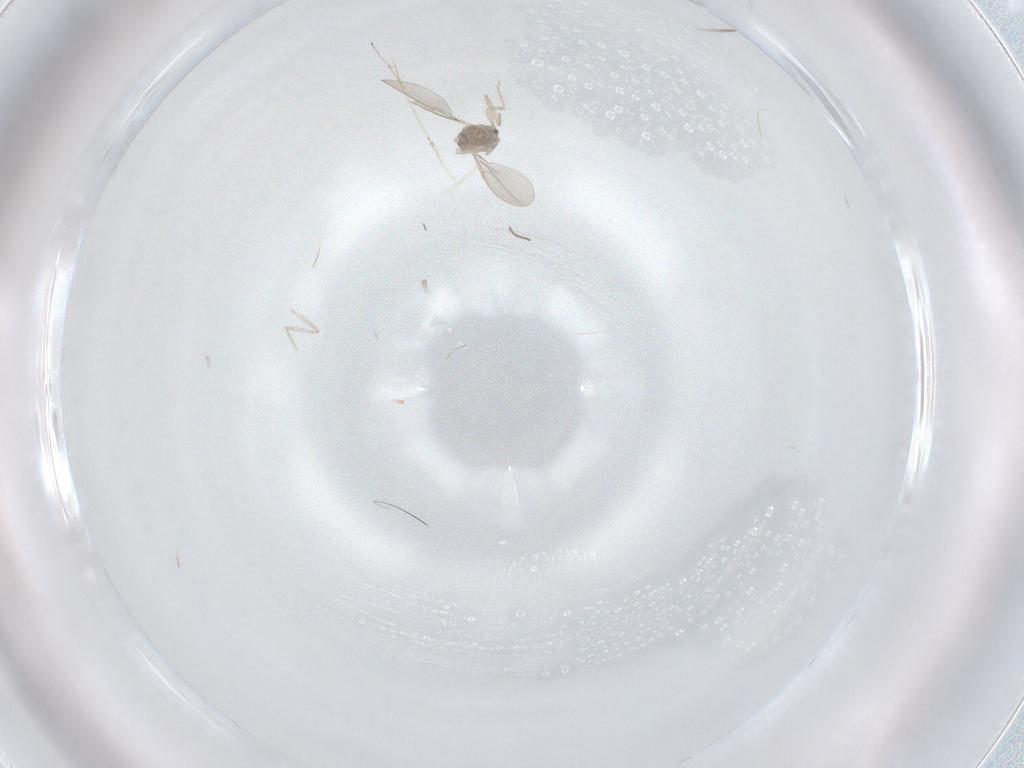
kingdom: Animalia
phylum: Arthropoda
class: Insecta
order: Diptera
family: Cecidomyiidae
